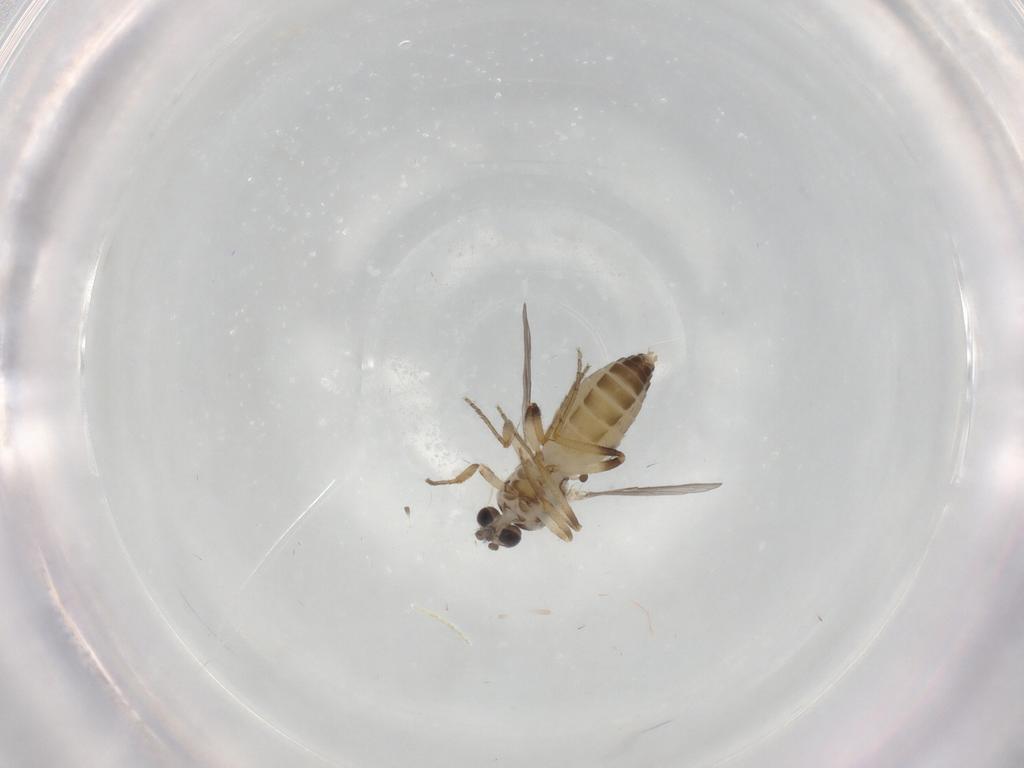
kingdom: Animalia
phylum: Arthropoda
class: Insecta
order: Diptera
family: Ceratopogonidae
